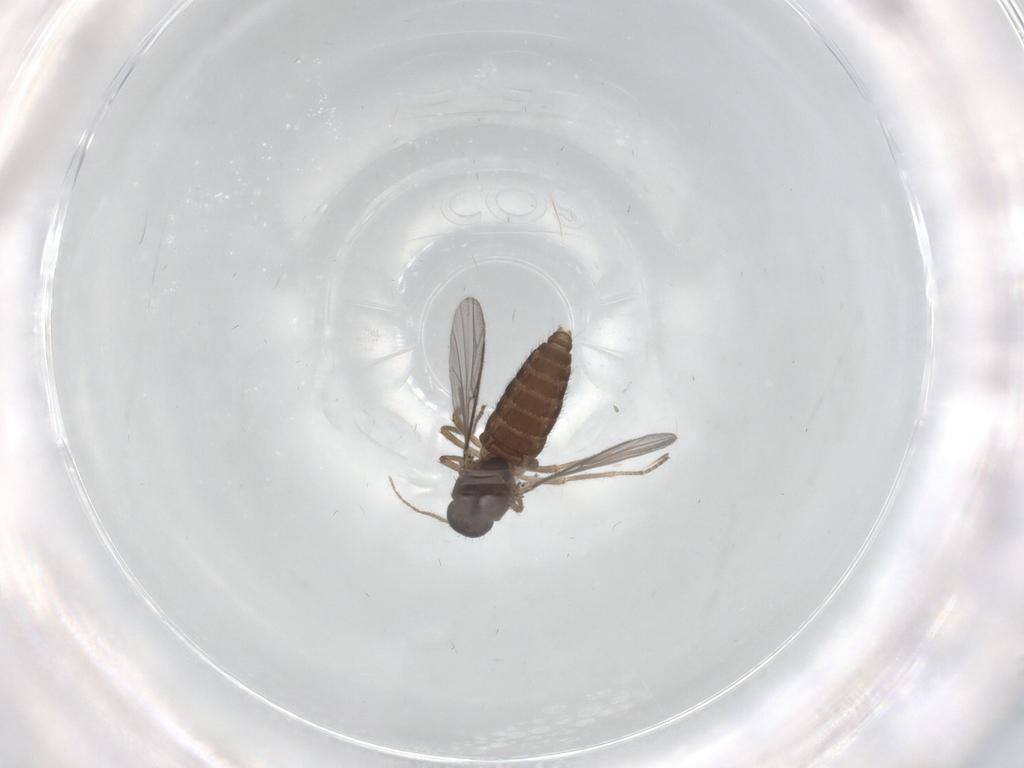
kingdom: Animalia
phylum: Arthropoda
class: Insecta
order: Diptera
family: Ceratopogonidae
